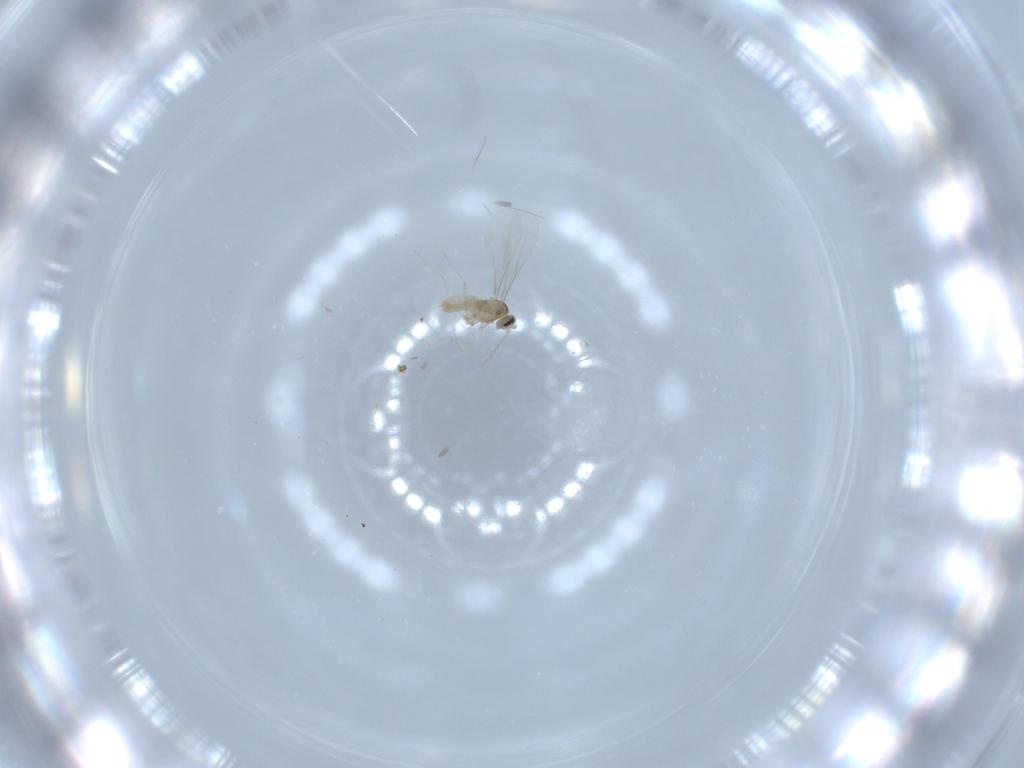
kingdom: Animalia
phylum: Arthropoda
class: Insecta
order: Diptera
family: Cecidomyiidae
